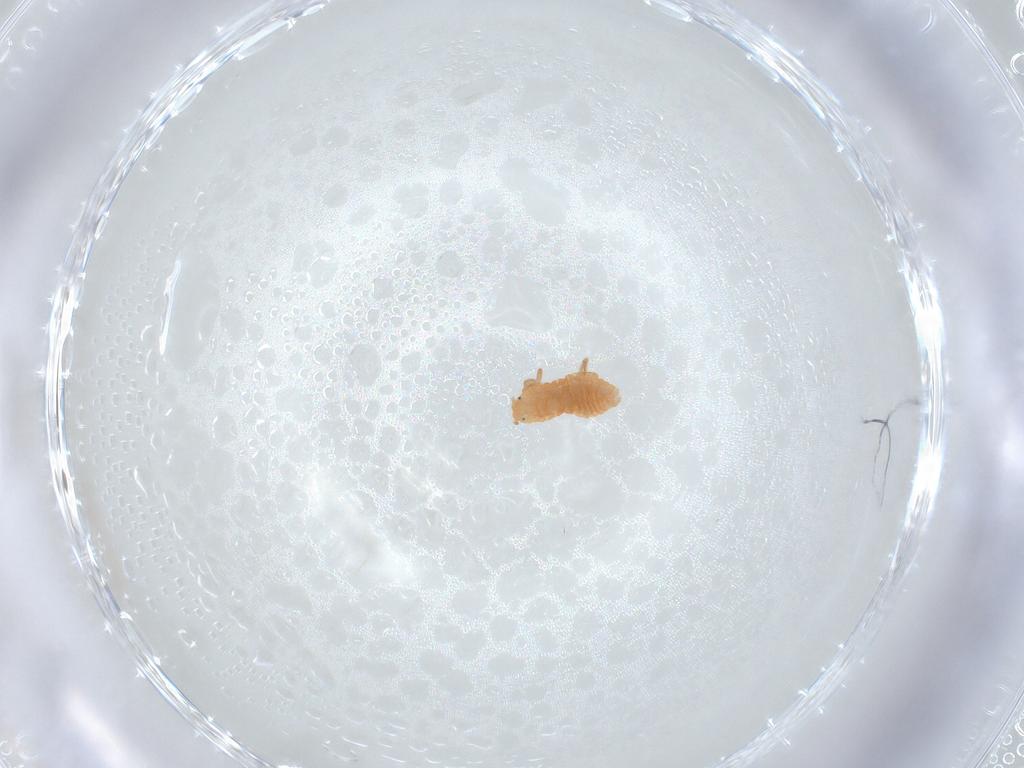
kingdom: Animalia
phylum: Arthropoda
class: Insecta
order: Hemiptera
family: Pseudococcidae
